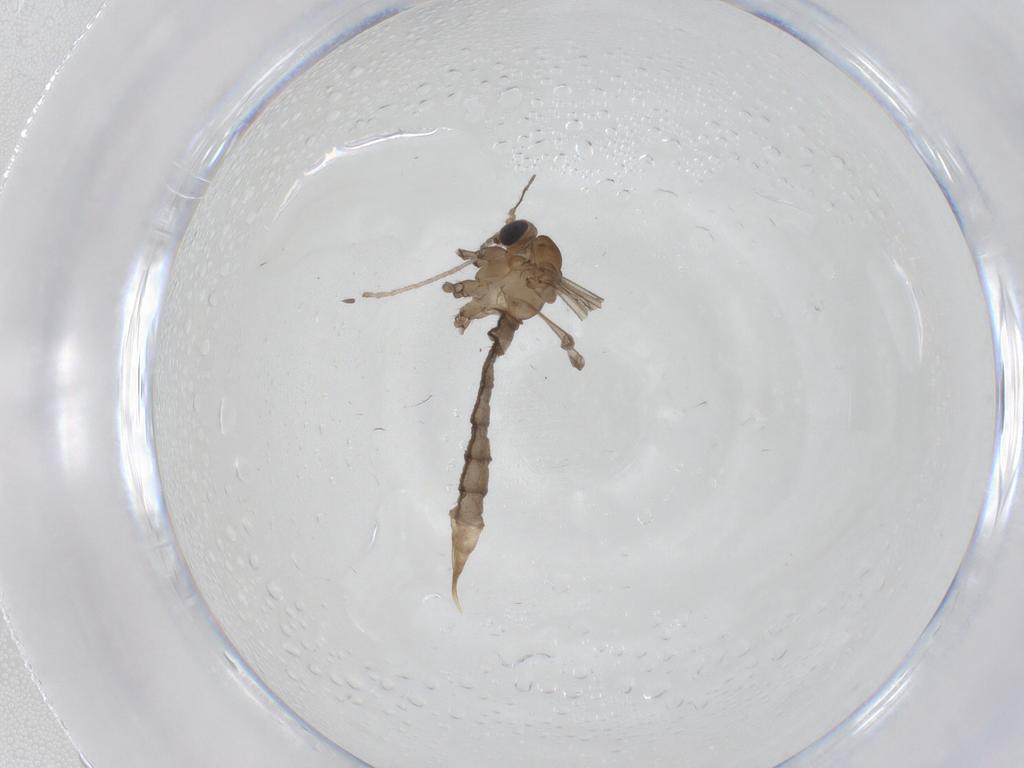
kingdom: Animalia
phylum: Arthropoda
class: Insecta
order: Diptera
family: Limoniidae
